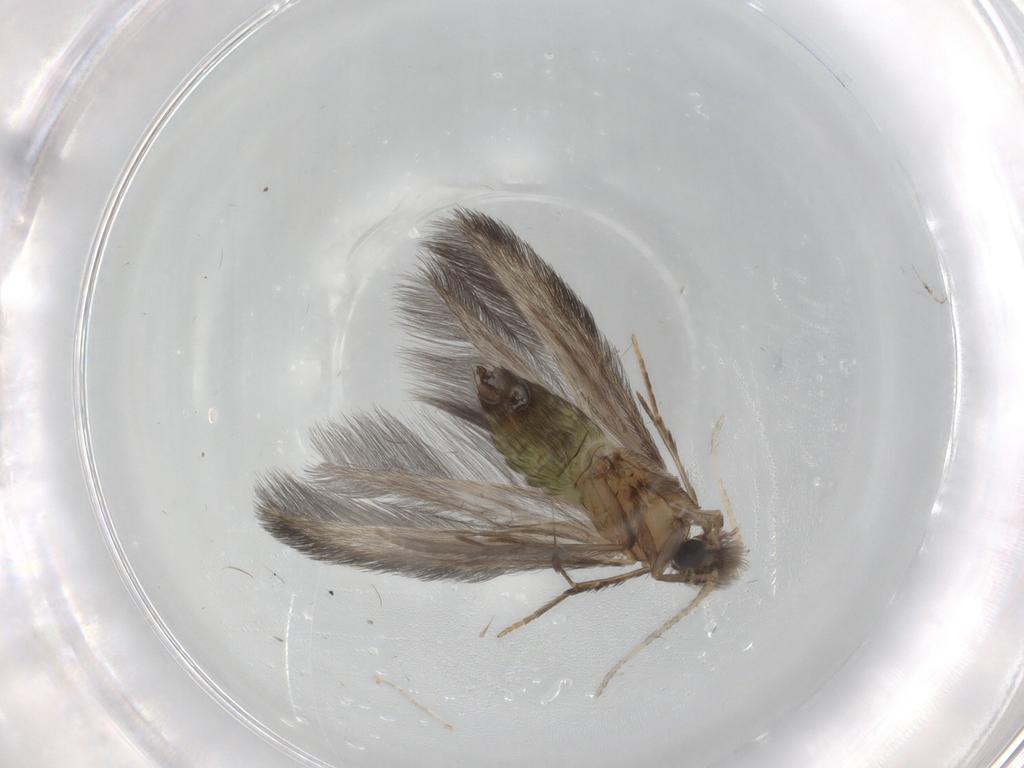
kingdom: Animalia
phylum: Arthropoda
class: Insecta
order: Trichoptera
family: Hydroptilidae
